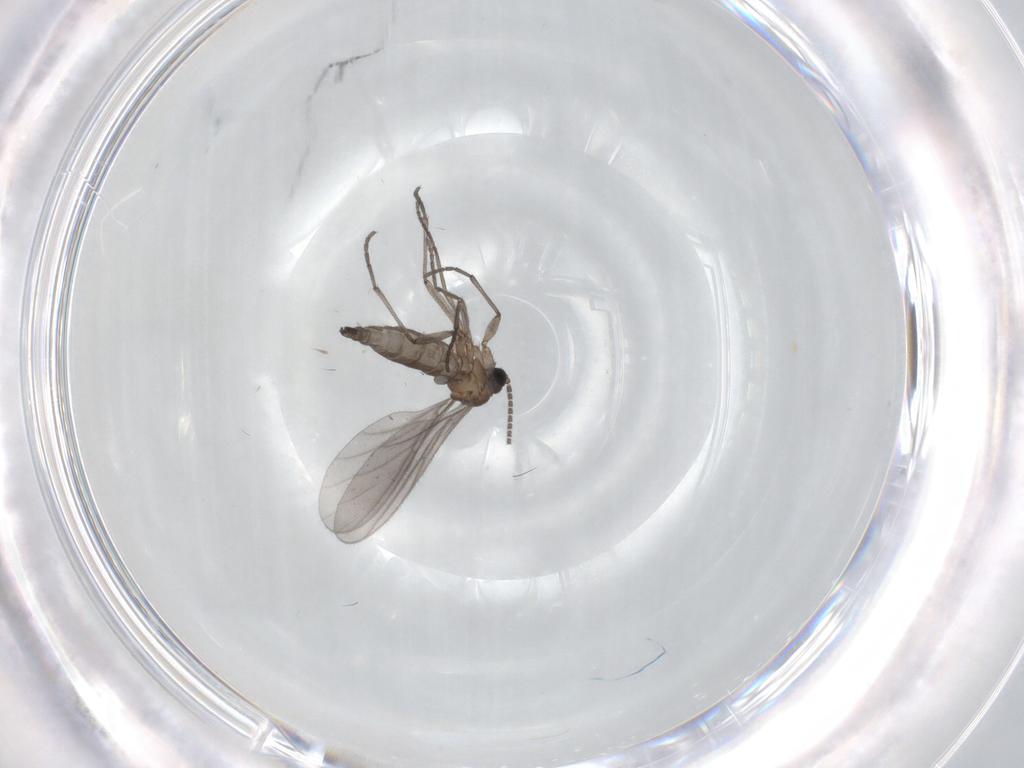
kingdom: Animalia
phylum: Arthropoda
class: Insecta
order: Diptera
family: Sciaridae
